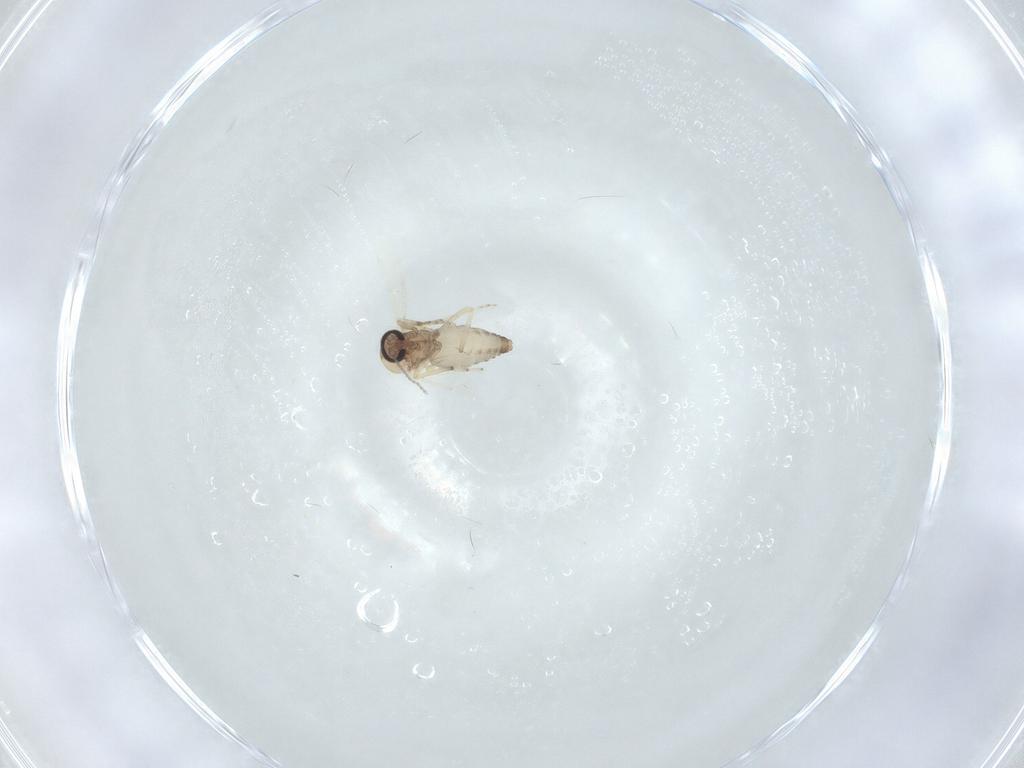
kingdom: Animalia
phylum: Arthropoda
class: Insecta
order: Diptera
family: Ceratopogonidae
